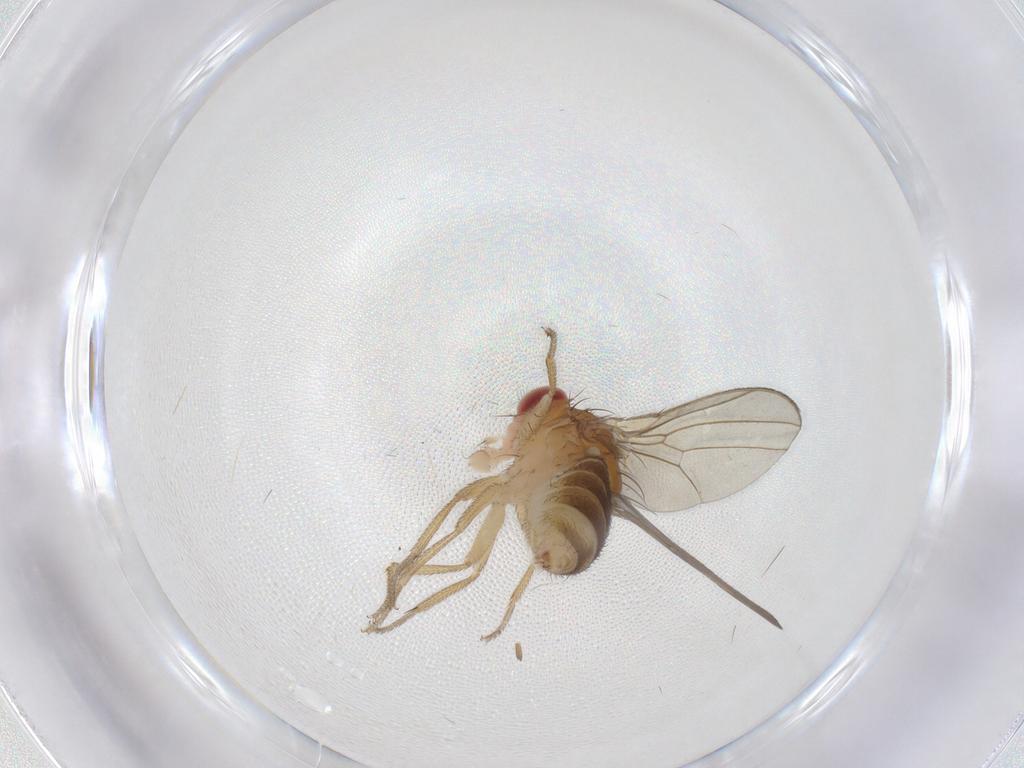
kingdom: Animalia
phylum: Arthropoda
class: Insecta
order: Diptera
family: Drosophilidae
